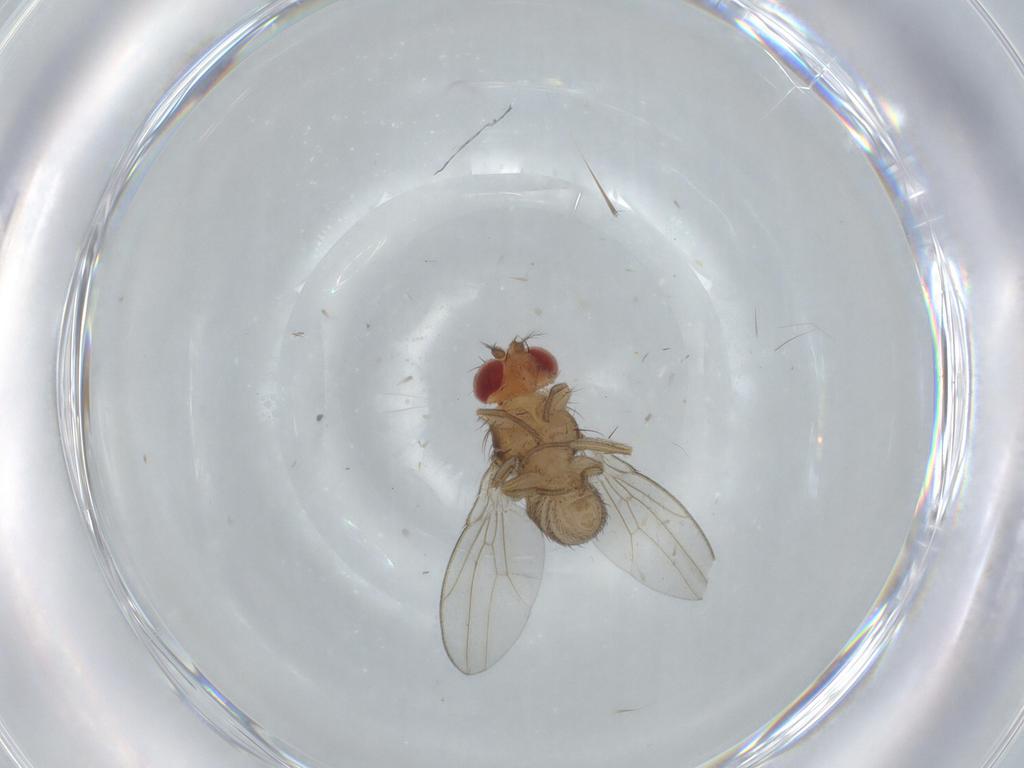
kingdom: Animalia
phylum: Arthropoda
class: Insecta
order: Diptera
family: Drosophilidae
